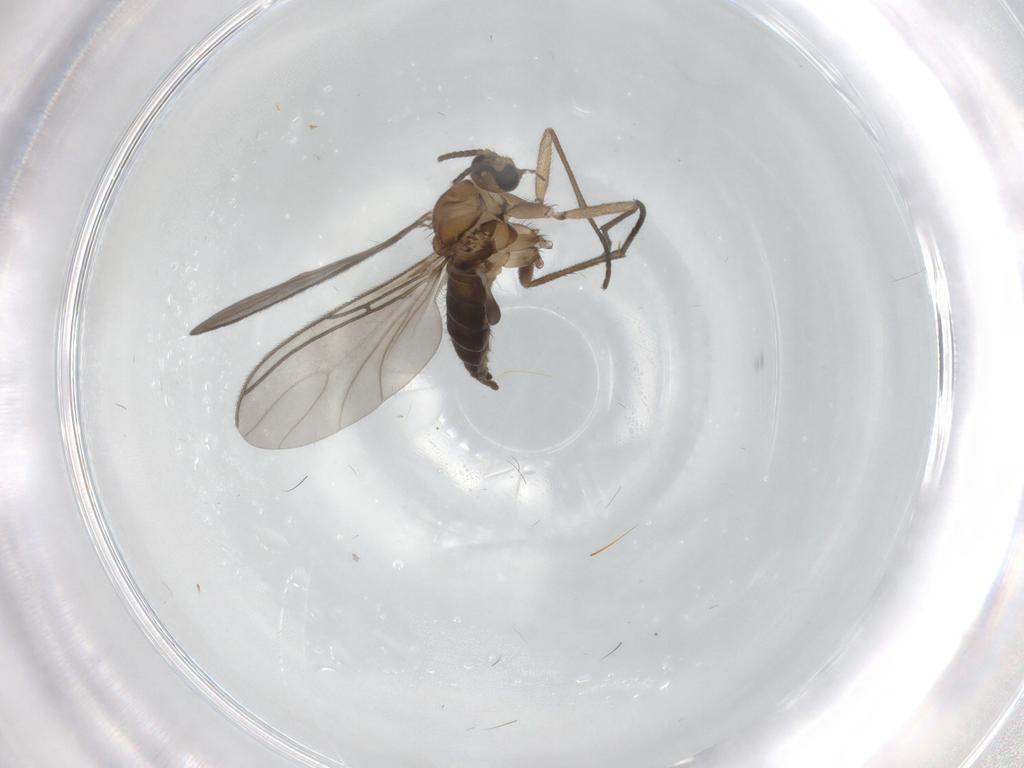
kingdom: Animalia
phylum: Arthropoda
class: Insecta
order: Diptera
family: Sciaridae
